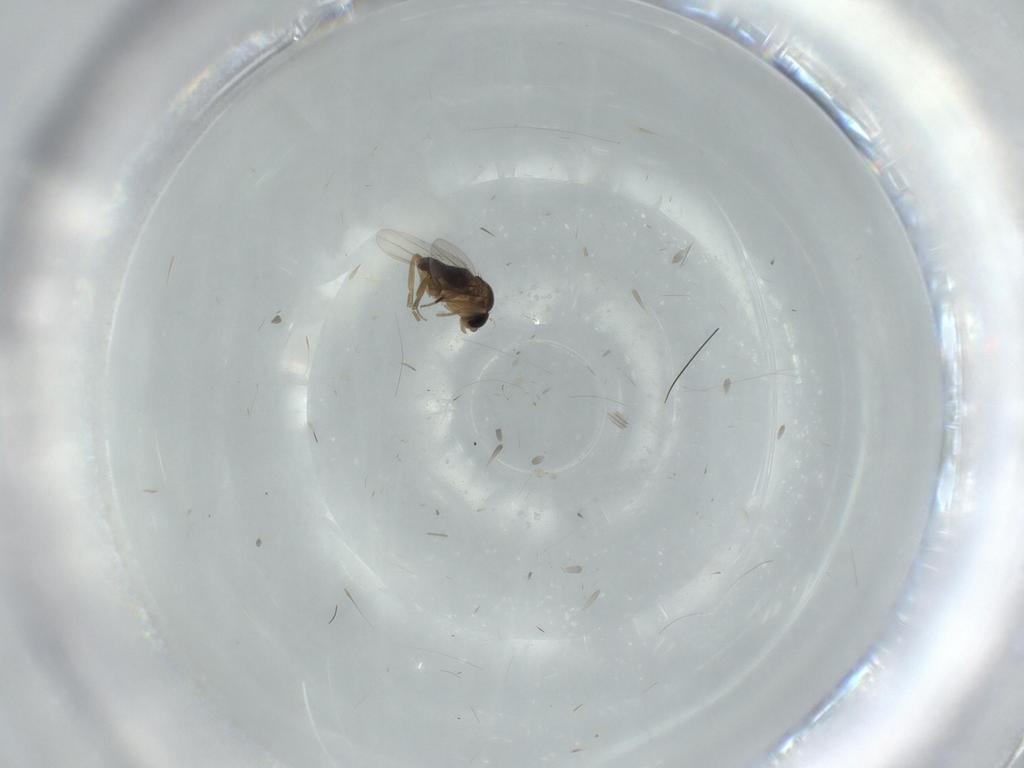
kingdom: Animalia
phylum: Arthropoda
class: Insecta
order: Diptera
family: Phoridae
